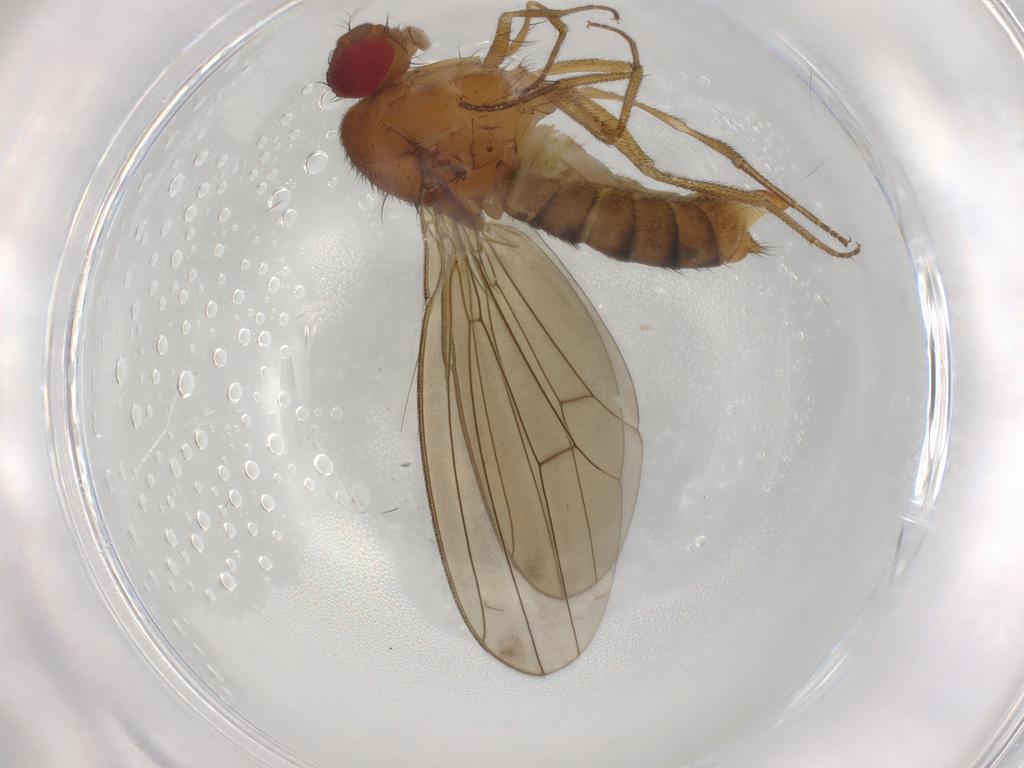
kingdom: Animalia
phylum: Arthropoda
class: Insecta
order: Diptera
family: Drosophilidae
